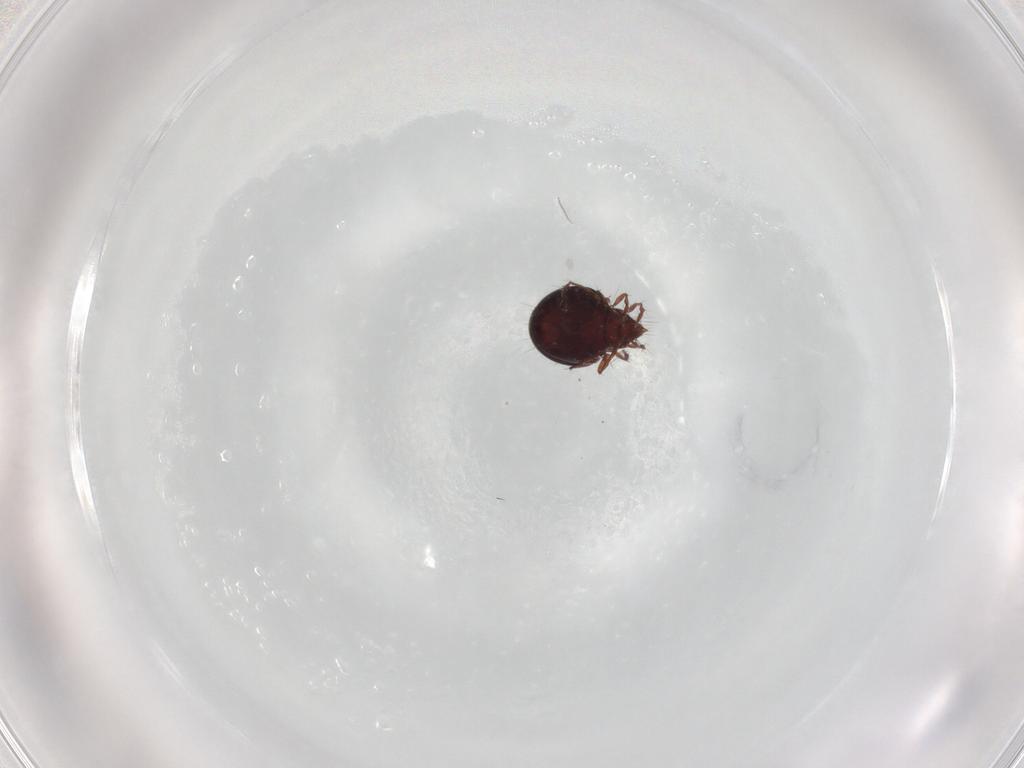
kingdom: Animalia
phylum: Arthropoda
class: Arachnida
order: Sarcoptiformes
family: Ceratoppiidae
